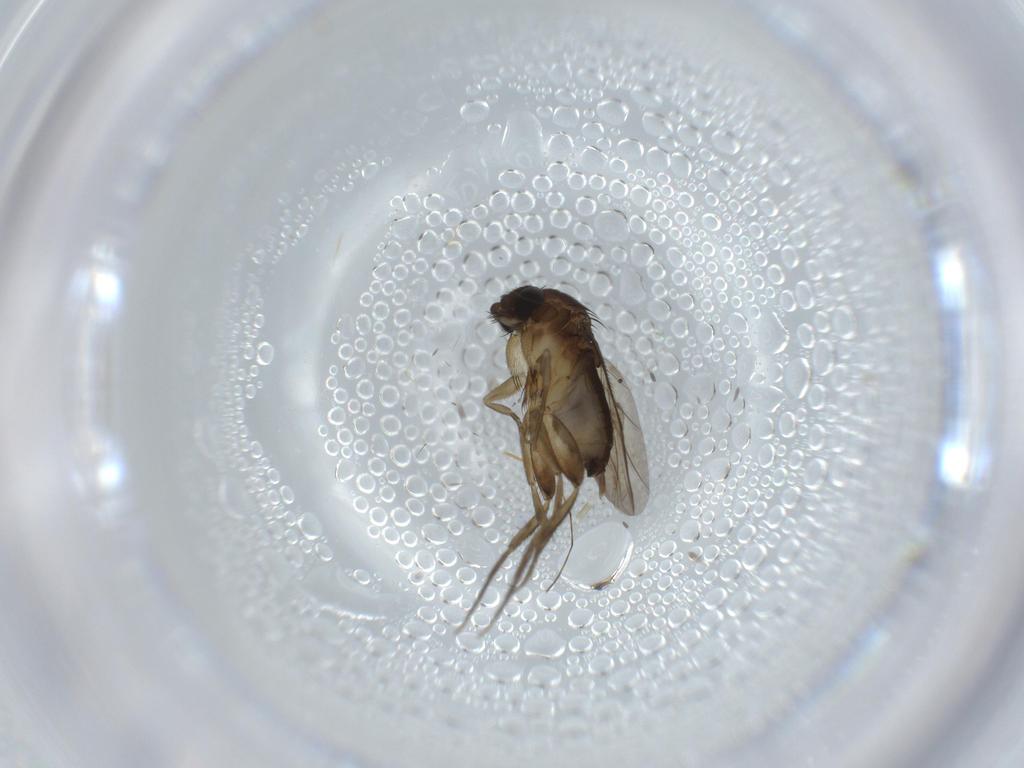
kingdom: Animalia
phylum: Arthropoda
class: Insecta
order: Diptera
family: Phoridae
